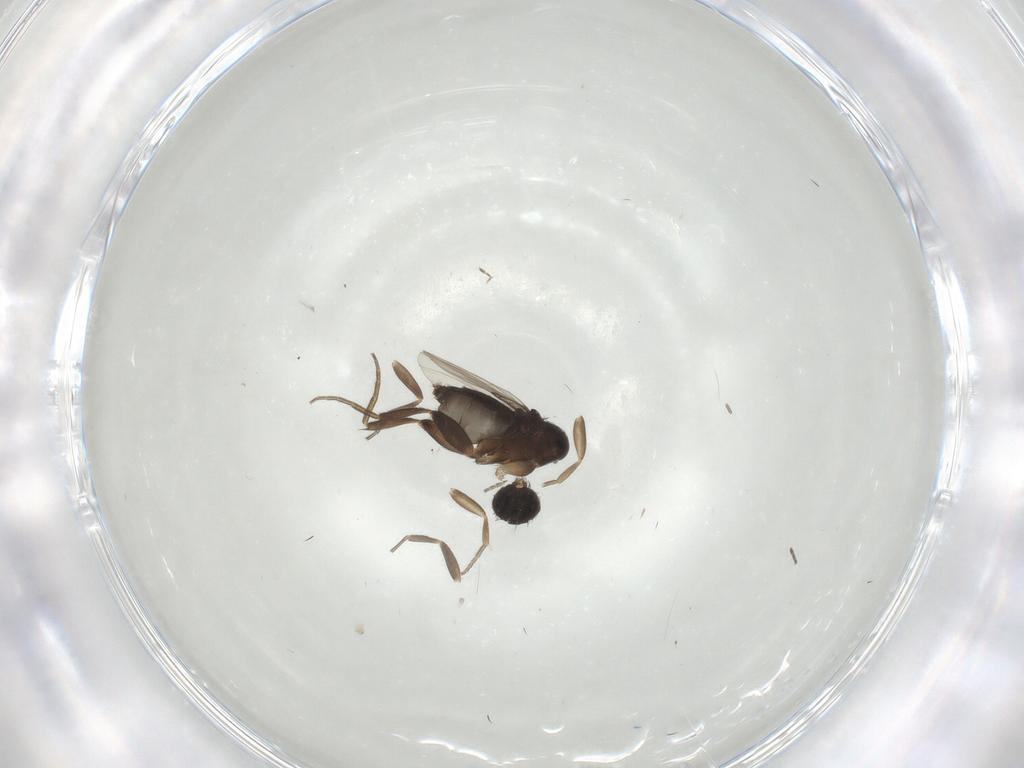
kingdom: Animalia
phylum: Arthropoda
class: Insecta
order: Diptera
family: Phoridae
